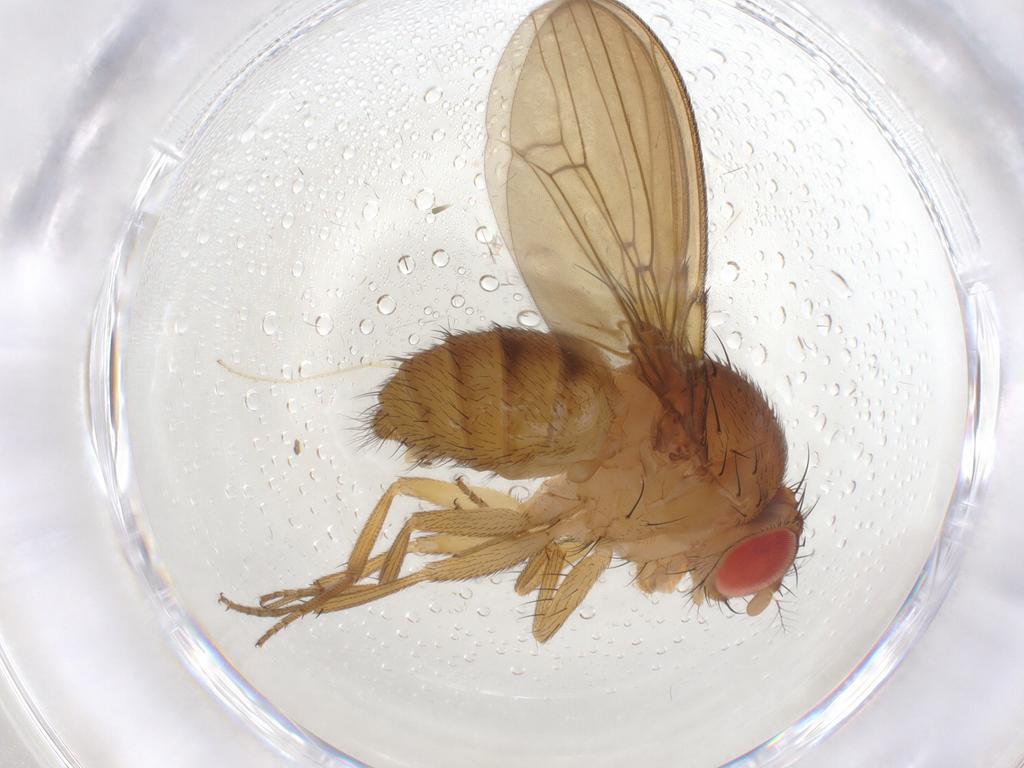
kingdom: Animalia
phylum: Arthropoda
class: Insecta
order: Diptera
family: Drosophilidae
